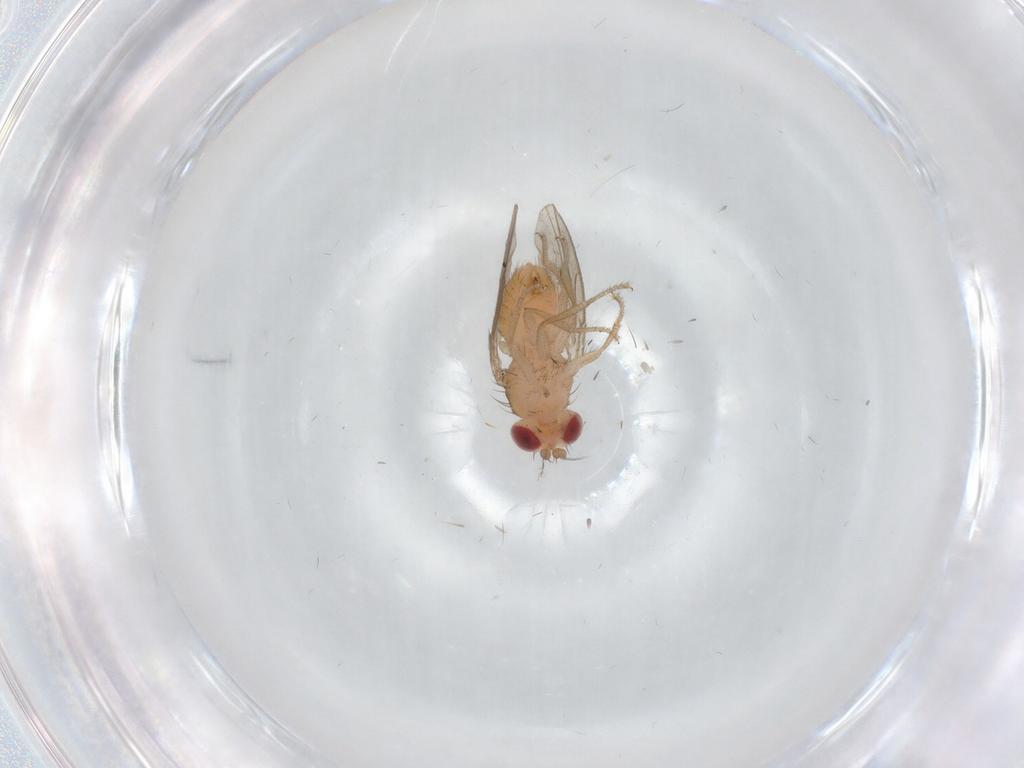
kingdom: Animalia
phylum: Arthropoda
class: Insecta
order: Diptera
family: Drosophilidae
